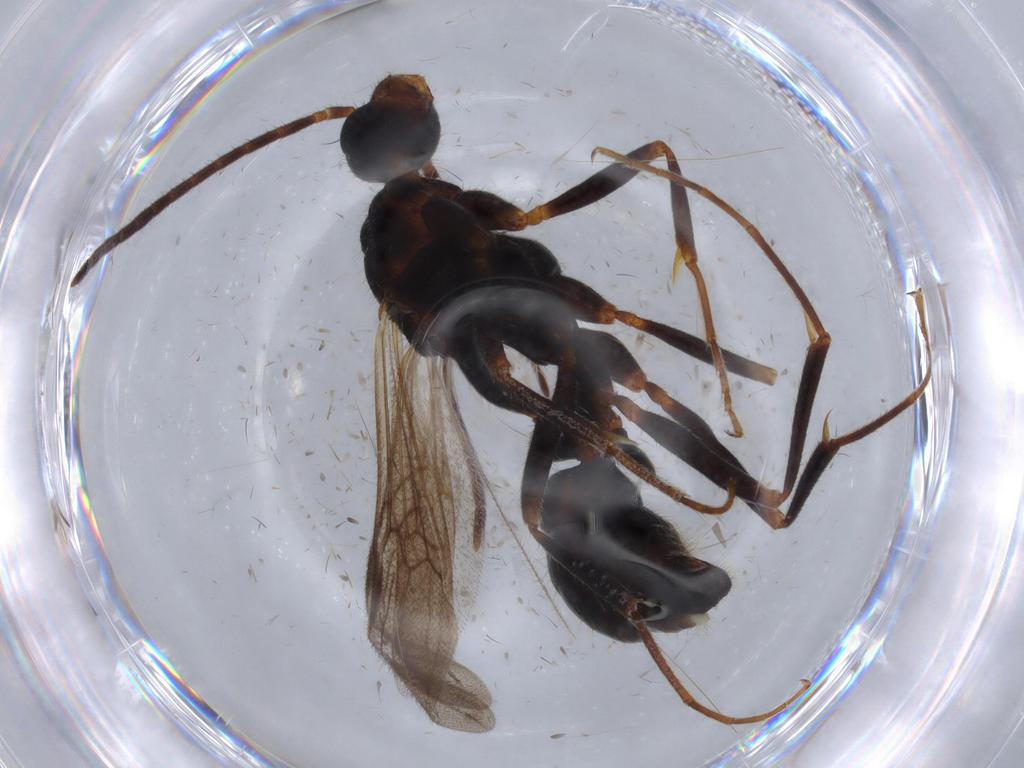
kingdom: Animalia
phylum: Arthropoda
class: Insecta
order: Hymenoptera
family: Formicidae
